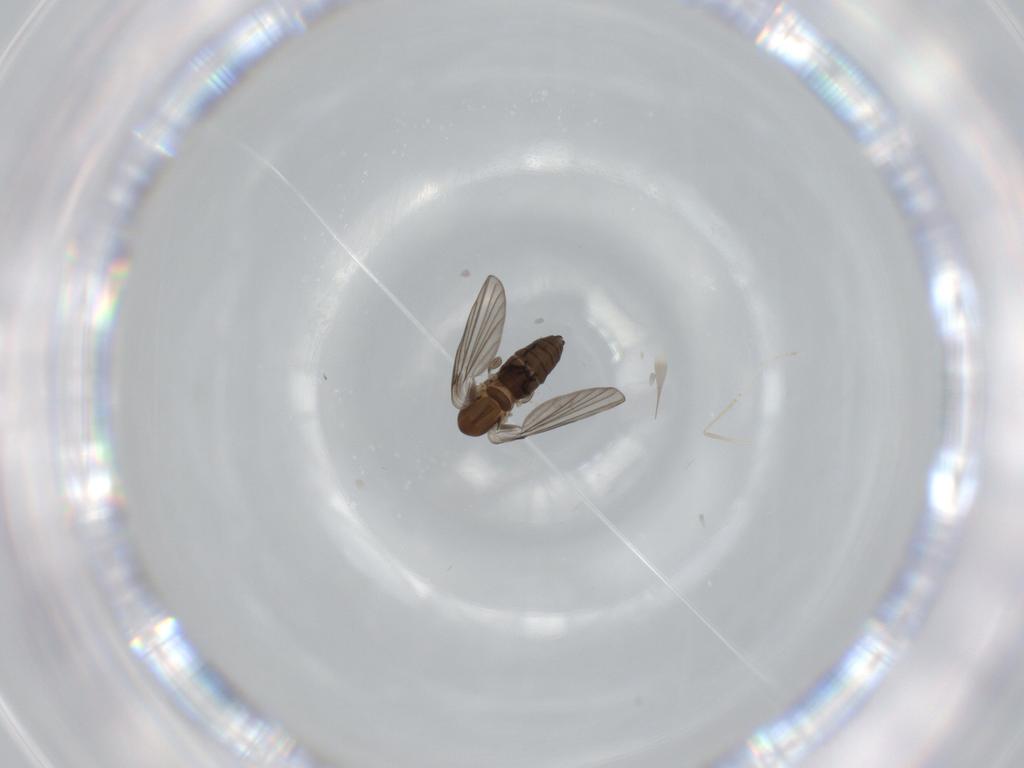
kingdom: Animalia
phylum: Arthropoda
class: Insecta
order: Diptera
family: Psychodidae
